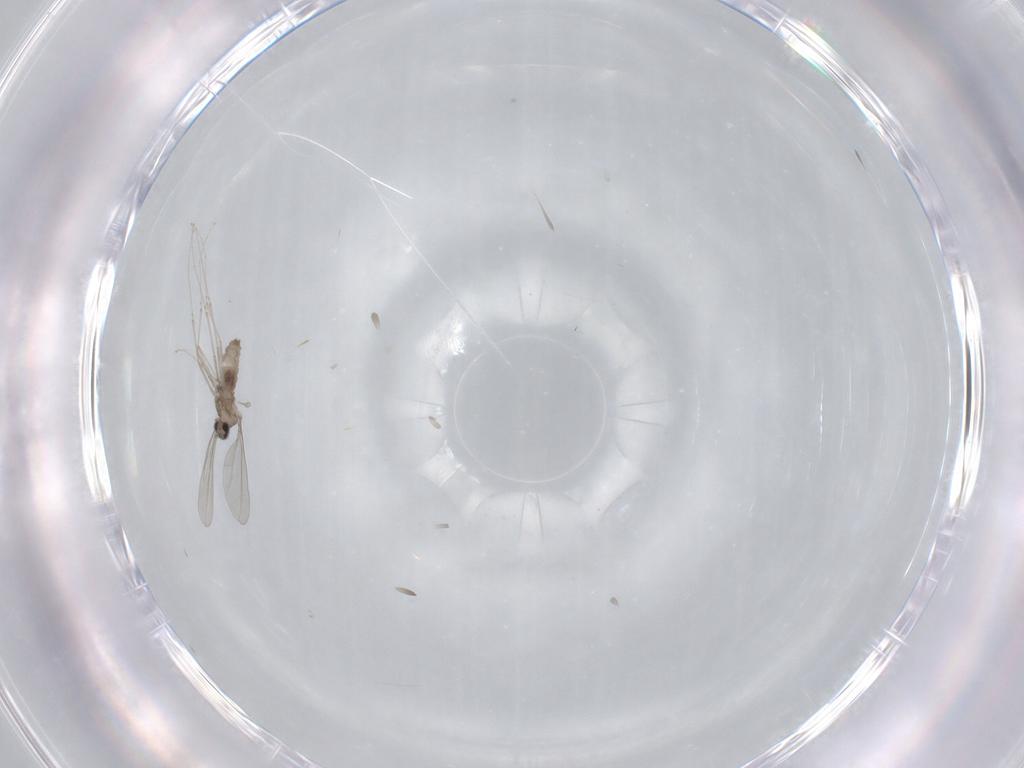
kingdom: Animalia
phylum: Arthropoda
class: Insecta
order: Diptera
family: Cecidomyiidae
